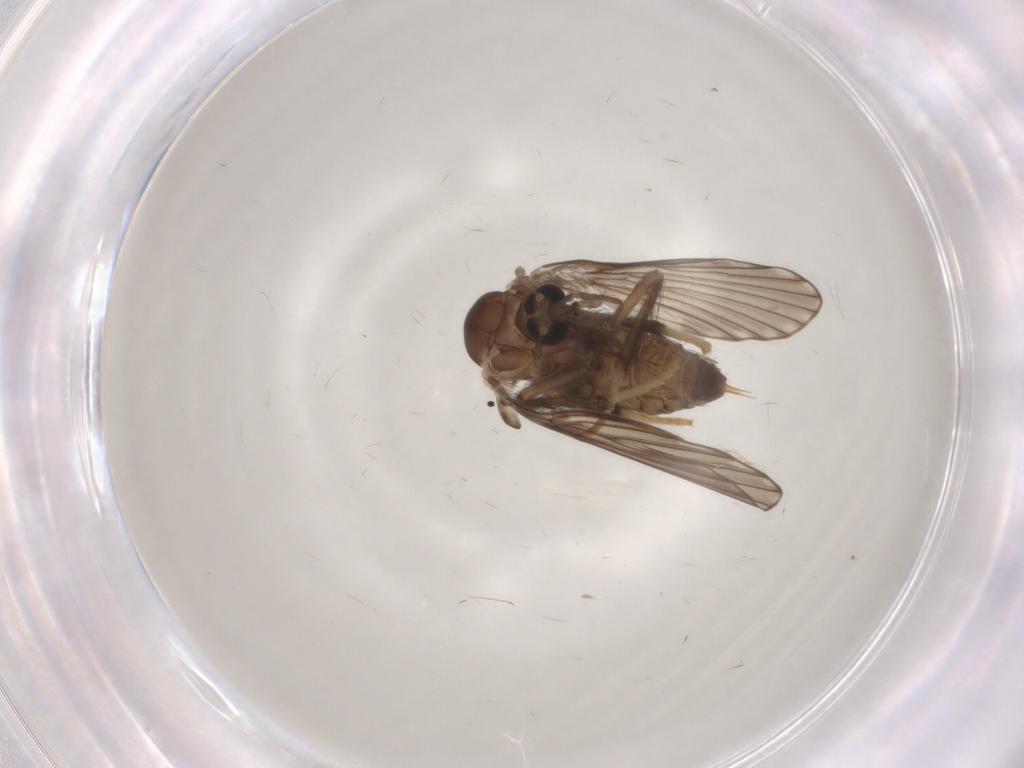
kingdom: Animalia
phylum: Arthropoda
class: Insecta
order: Diptera
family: Psychodidae
